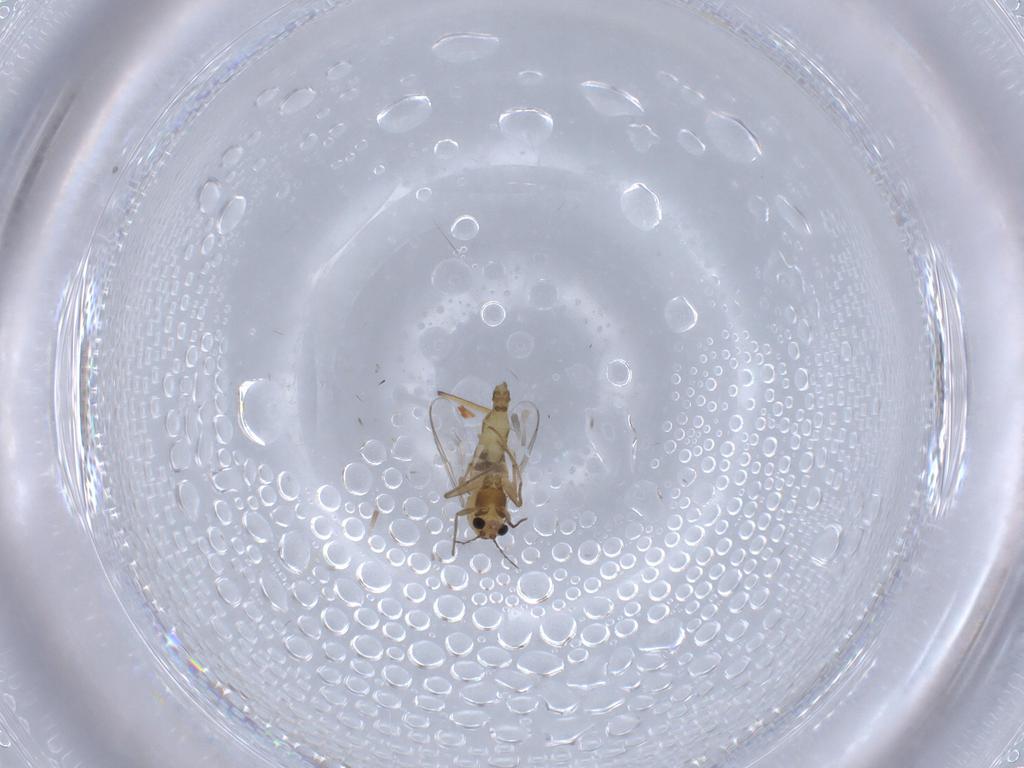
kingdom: Animalia
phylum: Arthropoda
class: Insecta
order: Diptera
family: Chironomidae
